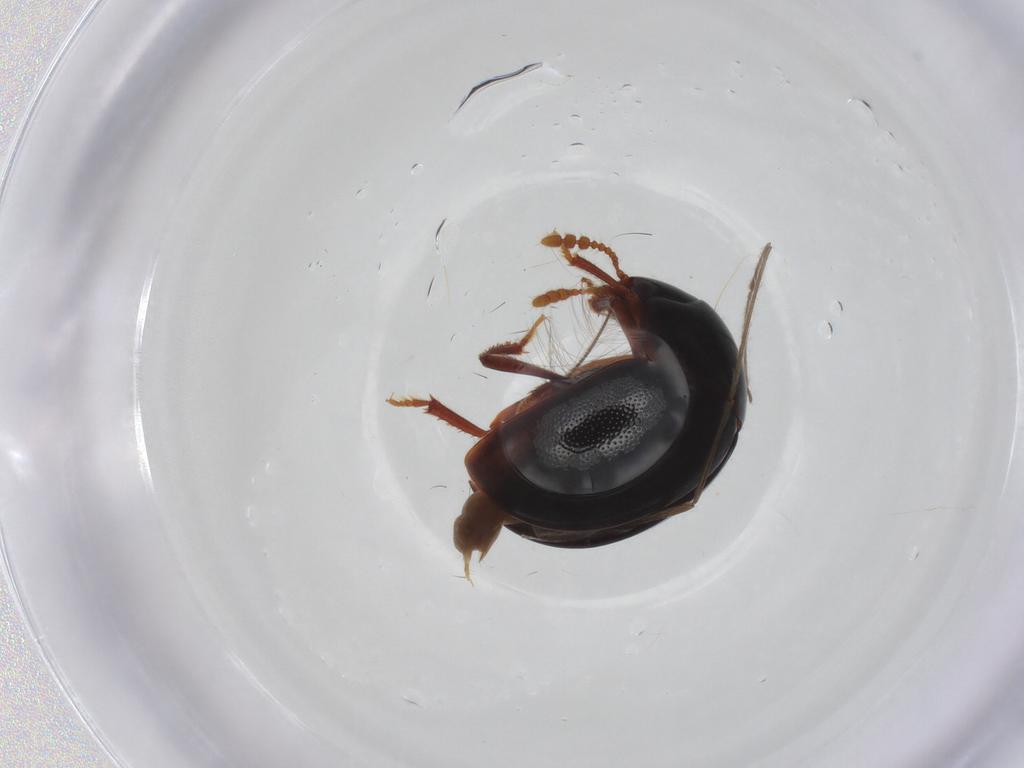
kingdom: Animalia
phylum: Arthropoda
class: Insecta
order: Coleoptera
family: Leiodidae
